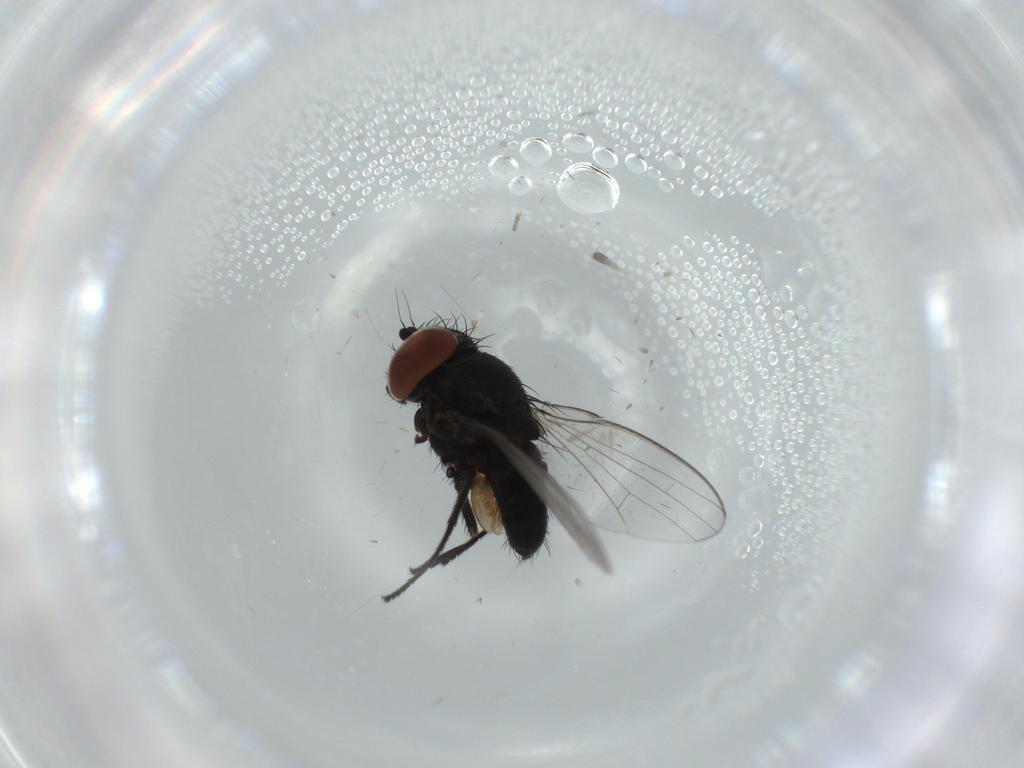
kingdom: Animalia
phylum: Arthropoda
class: Insecta
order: Diptera
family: Milichiidae
